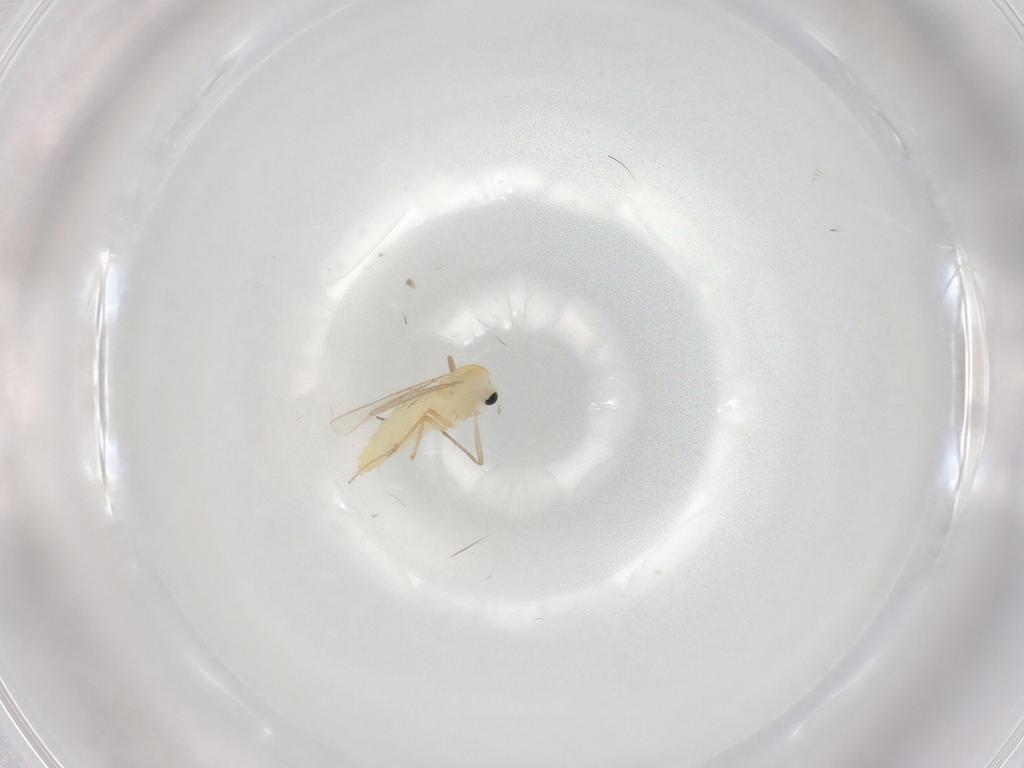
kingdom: Animalia
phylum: Arthropoda
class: Insecta
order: Diptera
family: Chironomidae
